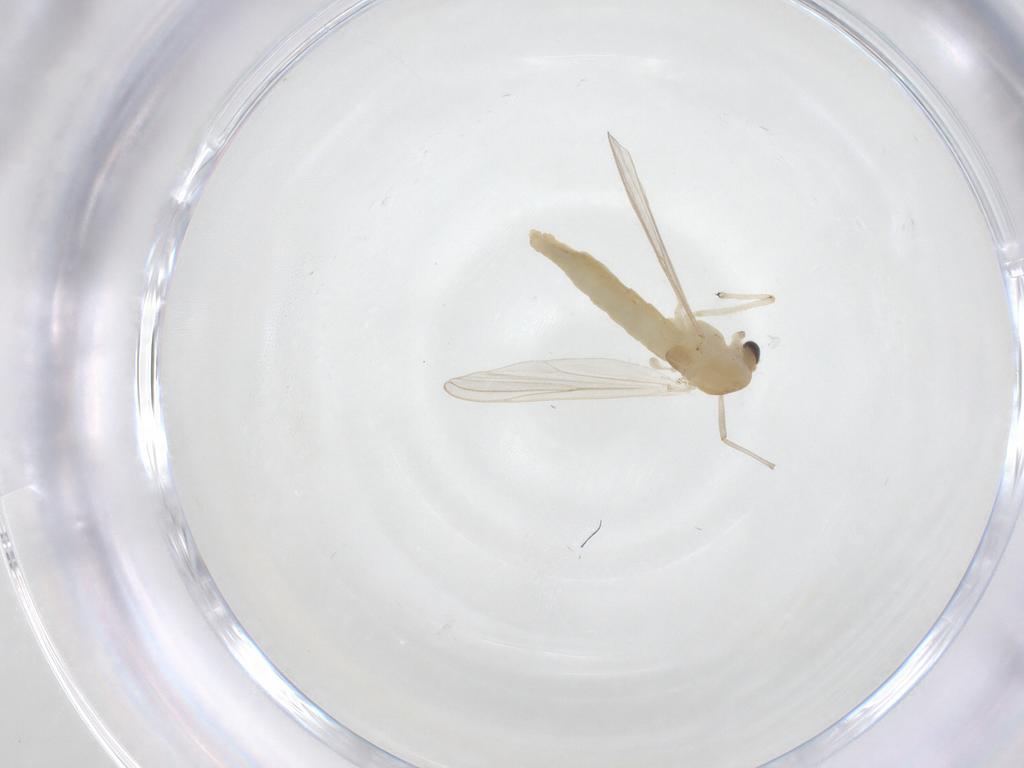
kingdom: Animalia
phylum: Arthropoda
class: Insecta
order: Diptera
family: Chironomidae
